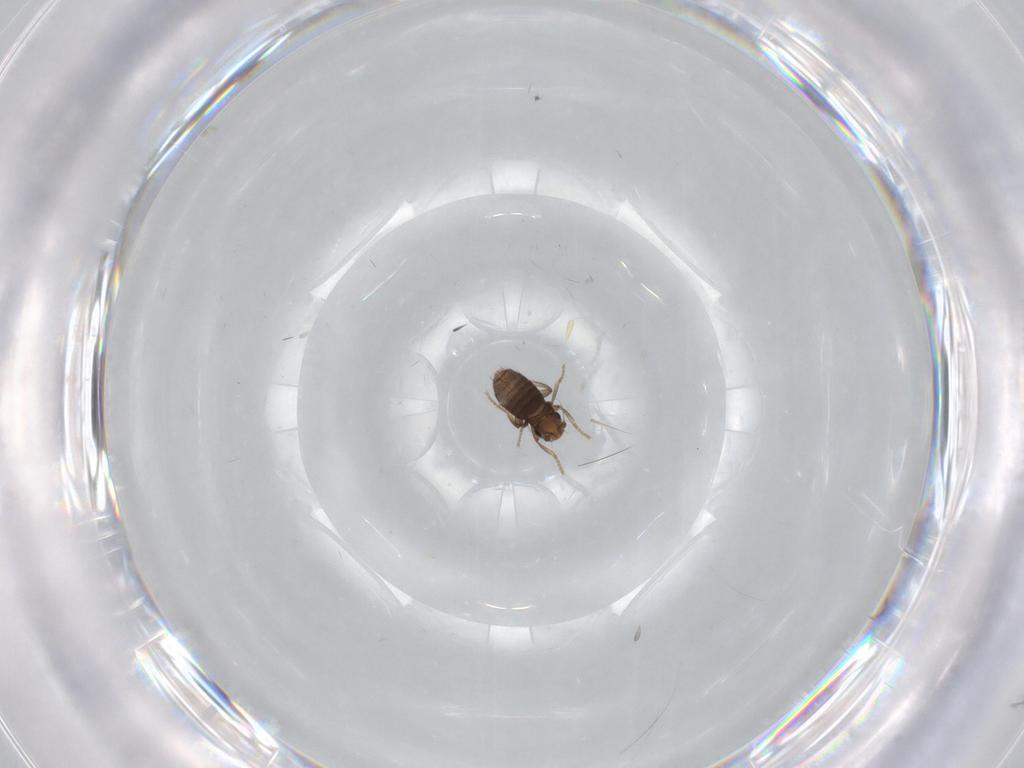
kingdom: Animalia
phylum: Arthropoda
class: Insecta
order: Diptera
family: Phoridae
